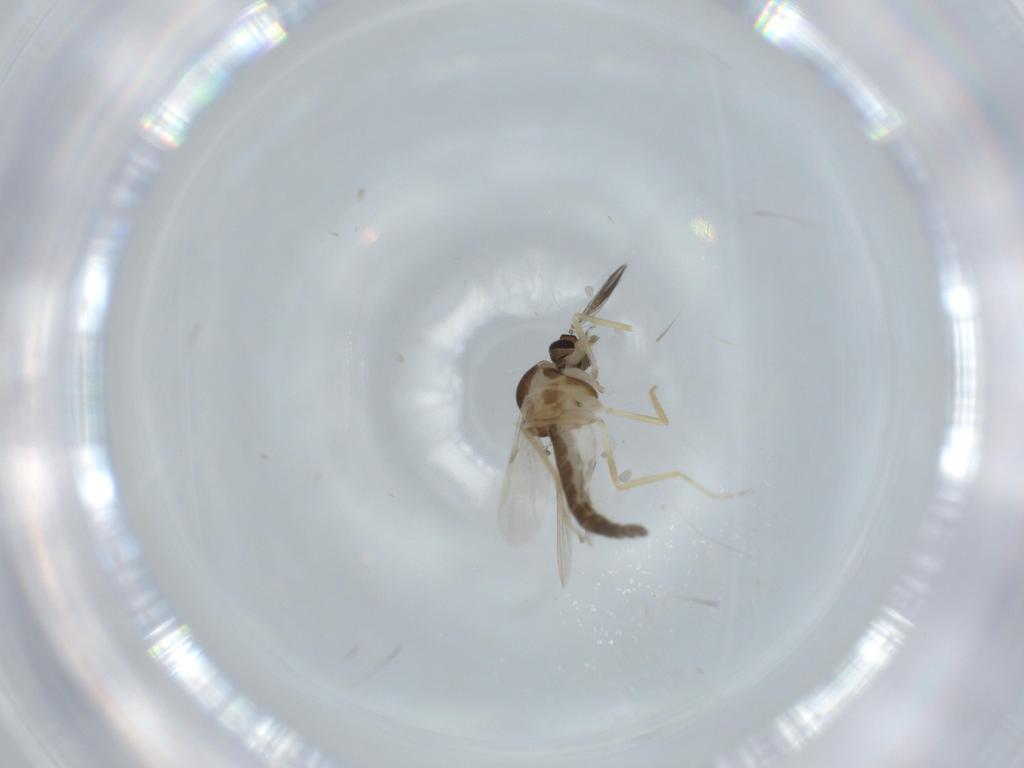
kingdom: Animalia
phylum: Arthropoda
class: Insecta
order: Diptera
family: Ceratopogonidae
